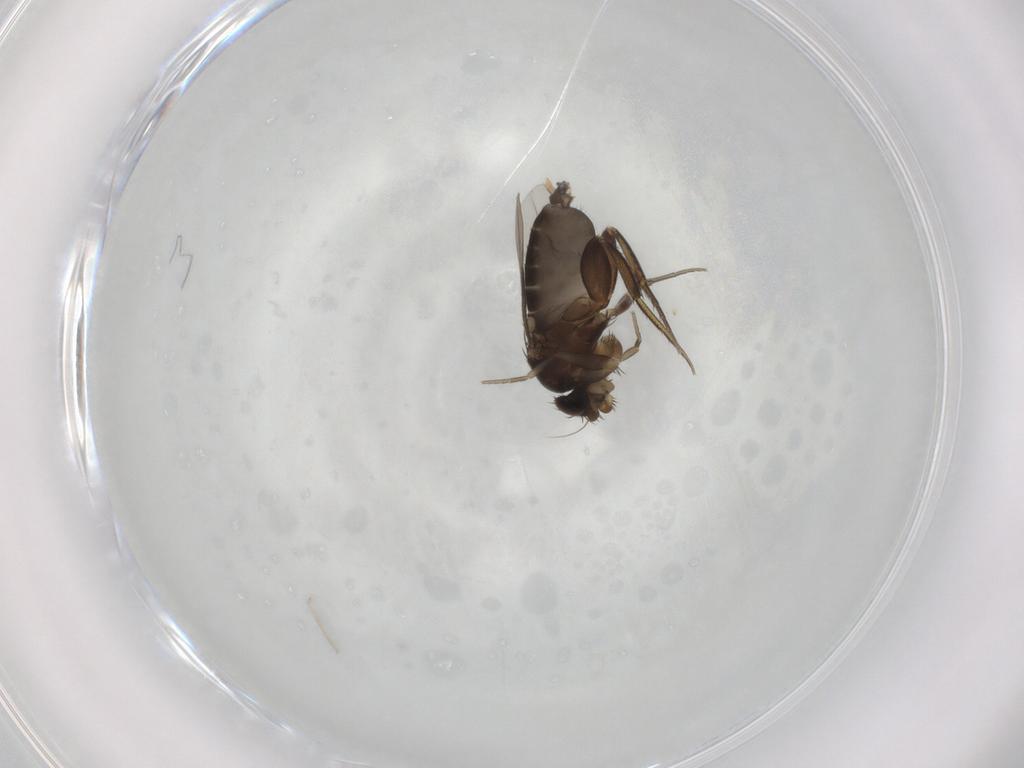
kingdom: Animalia
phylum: Arthropoda
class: Insecta
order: Diptera
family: Phoridae
